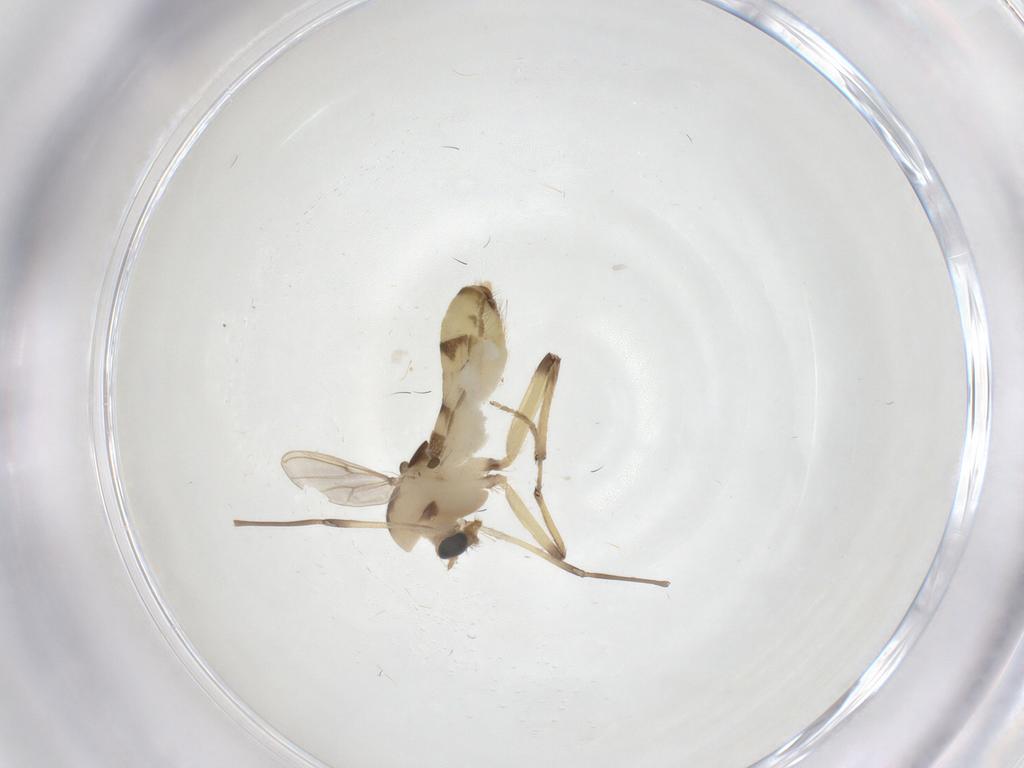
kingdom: Animalia
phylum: Arthropoda
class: Insecta
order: Diptera
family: Chironomidae
